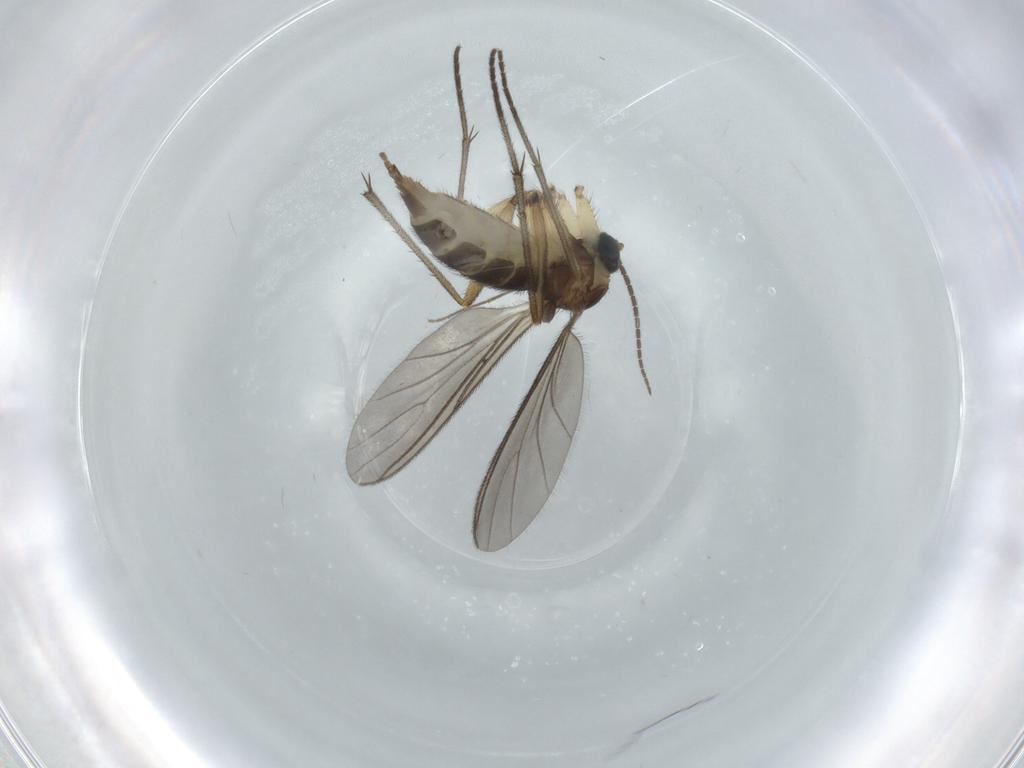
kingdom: Animalia
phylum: Arthropoda
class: Insecta
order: Diptera
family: Sciaridae
